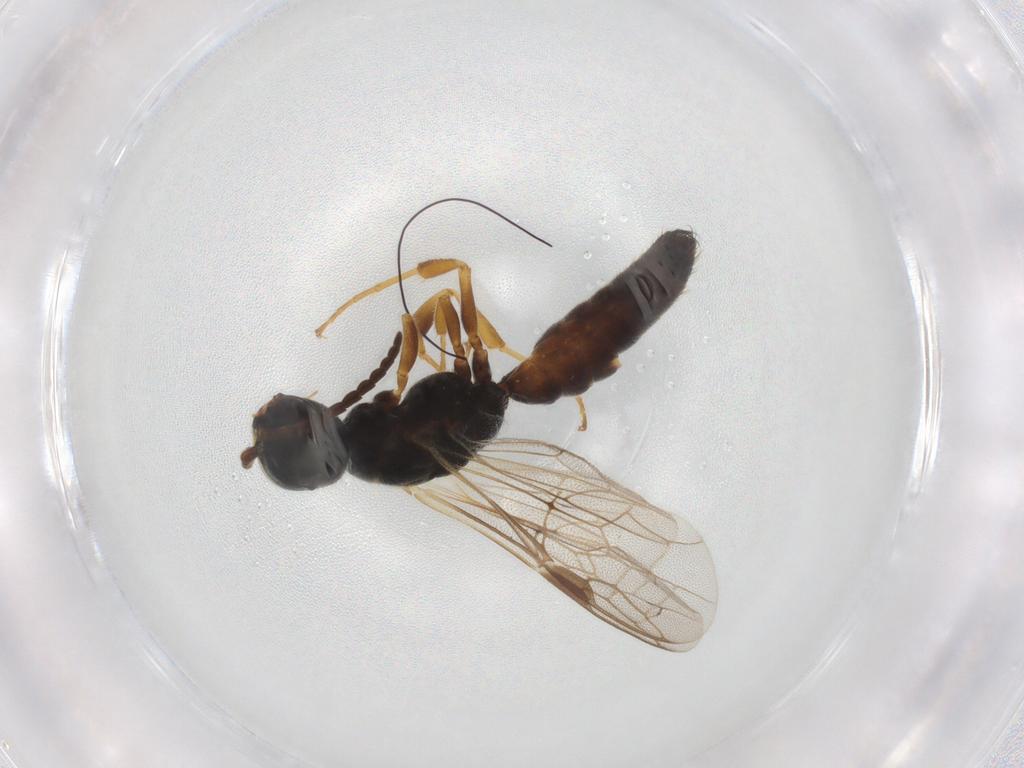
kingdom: Animalia
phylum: Arthropoda
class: Insecta
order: Hymenoptera
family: Thynnidae
